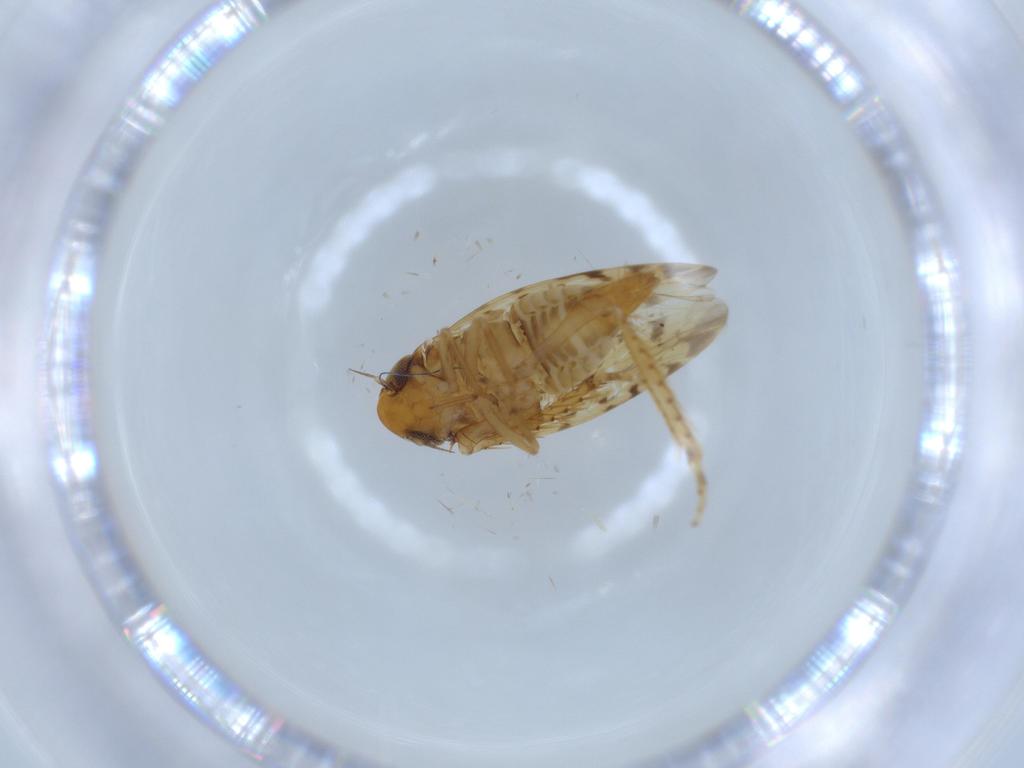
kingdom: Animalia
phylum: Arthropoda
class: Insecta
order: Hemiptera
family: Cicadellidae
